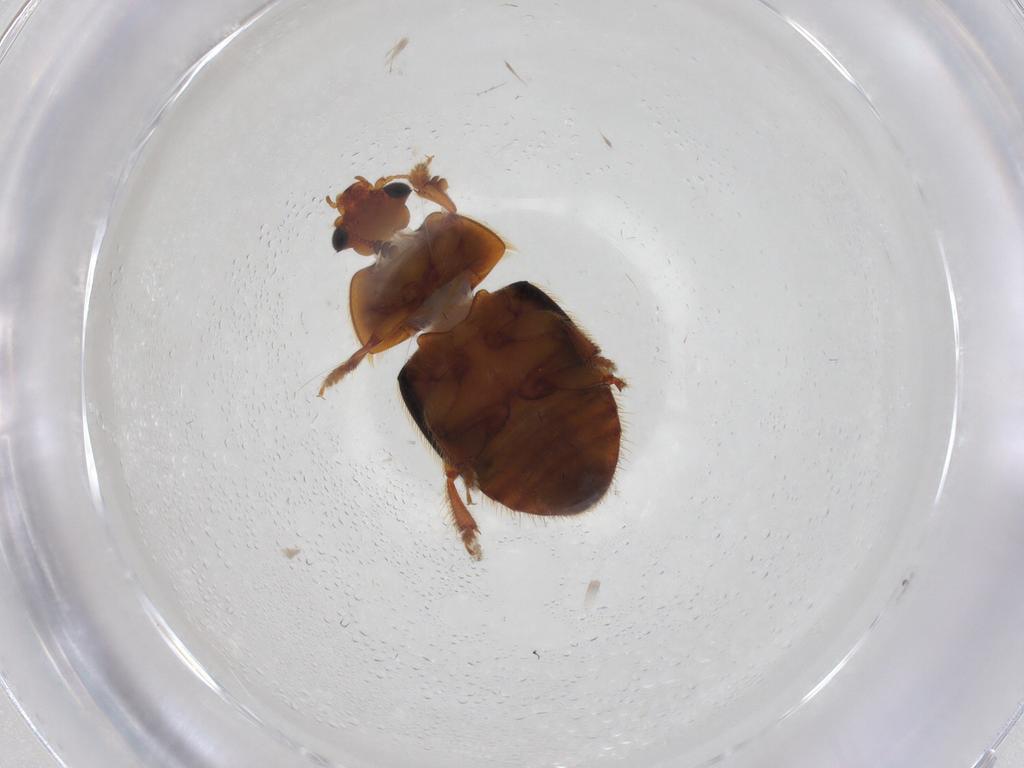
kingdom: Animalia
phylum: Arthropoda
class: Insecta
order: Coleoptera
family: Nitidulidae
